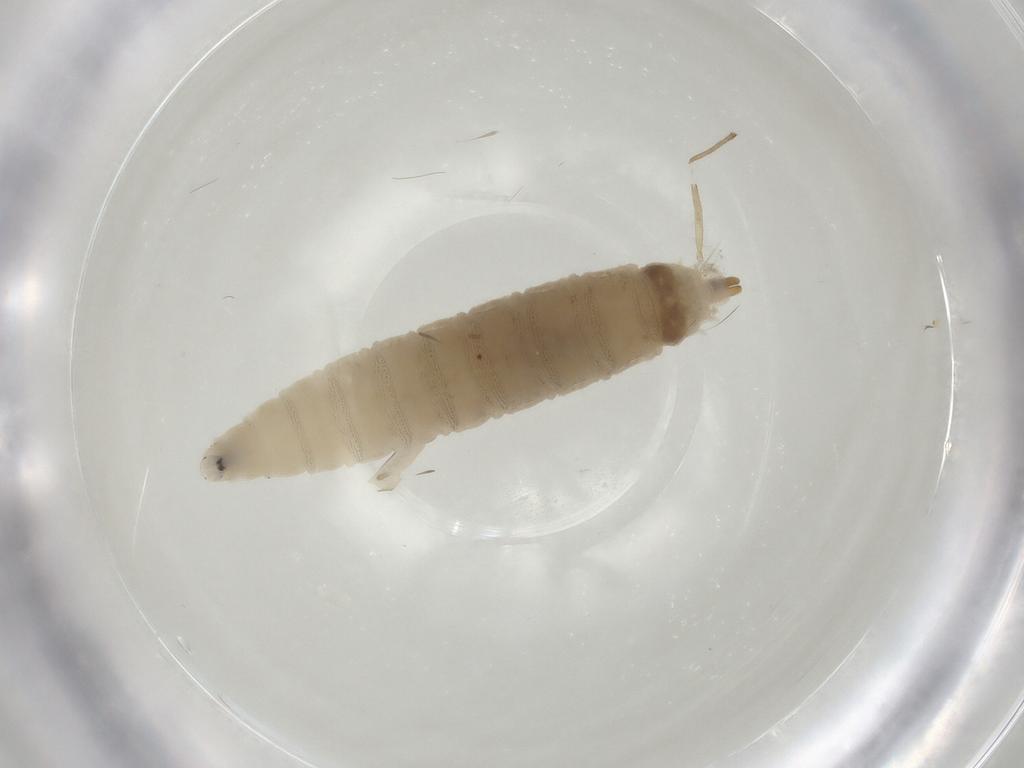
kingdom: Animalia
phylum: Arthropoda
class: Insecta
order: Diptera
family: Drosophilidae
